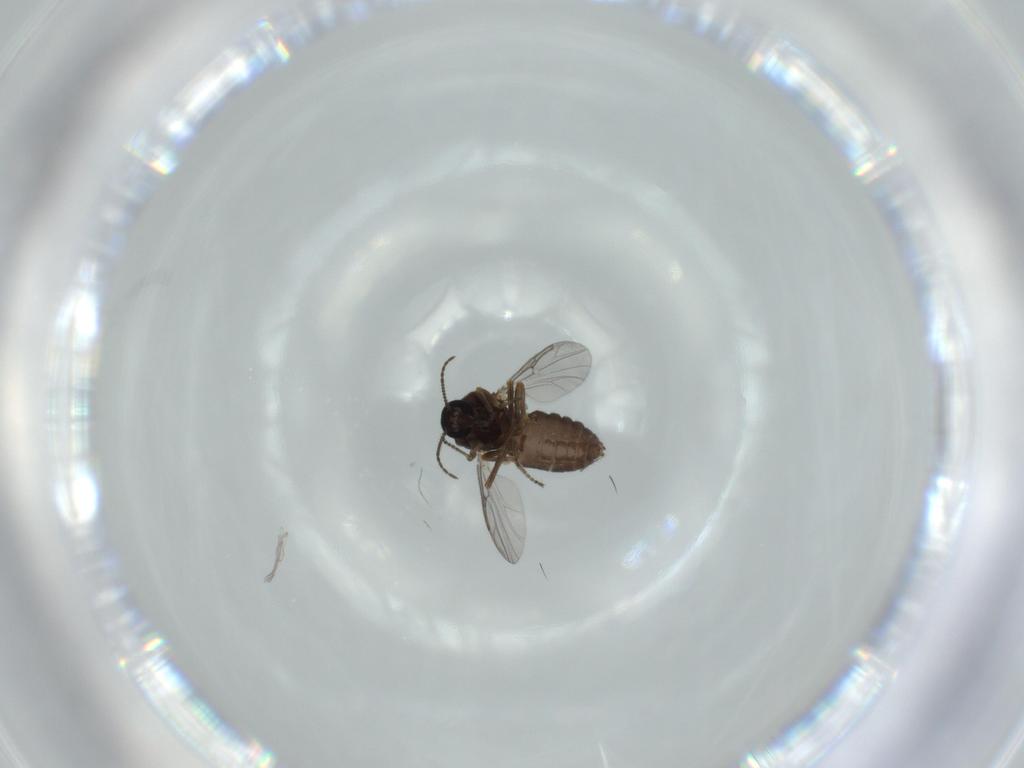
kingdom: Animalia
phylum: Arthropoda
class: Insecta
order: Diptera
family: Ceratopogonidae
